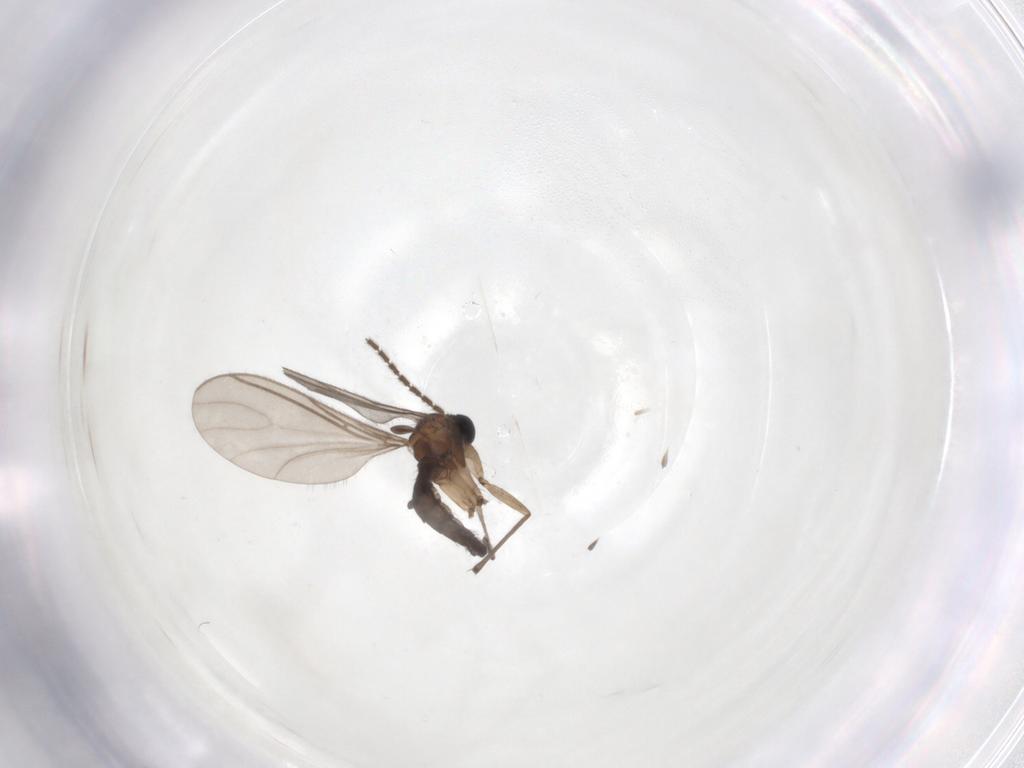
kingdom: Animalia
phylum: Arthropoda
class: Insecta
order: Diptera
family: Sciaridae
